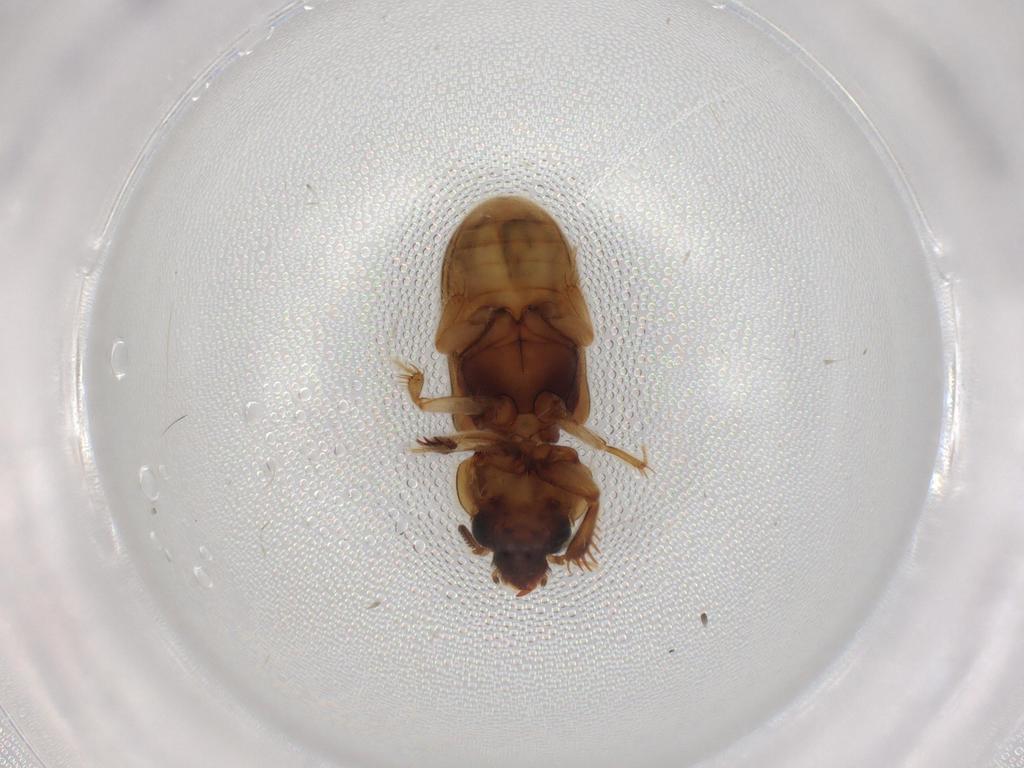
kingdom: Animalia
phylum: Arthropoda
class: Insecta
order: Coleoptera
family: Heteroceridae
